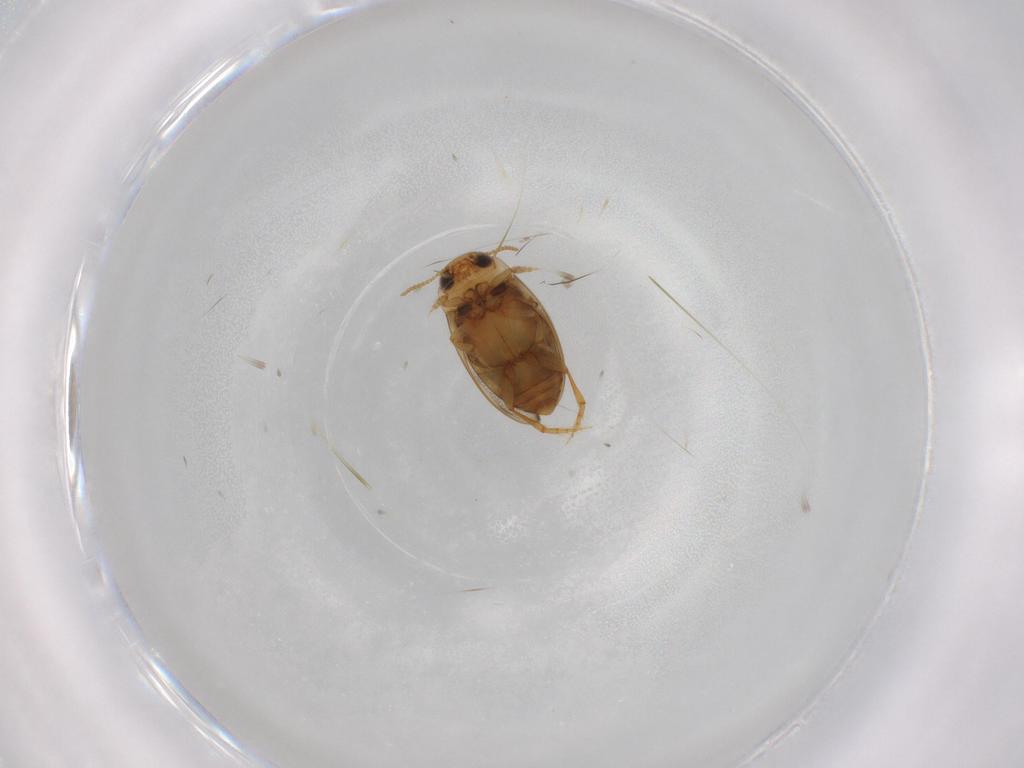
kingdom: Animalia
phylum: Arthropoda
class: Insecta
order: Coleoptera
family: Dytiscidae
